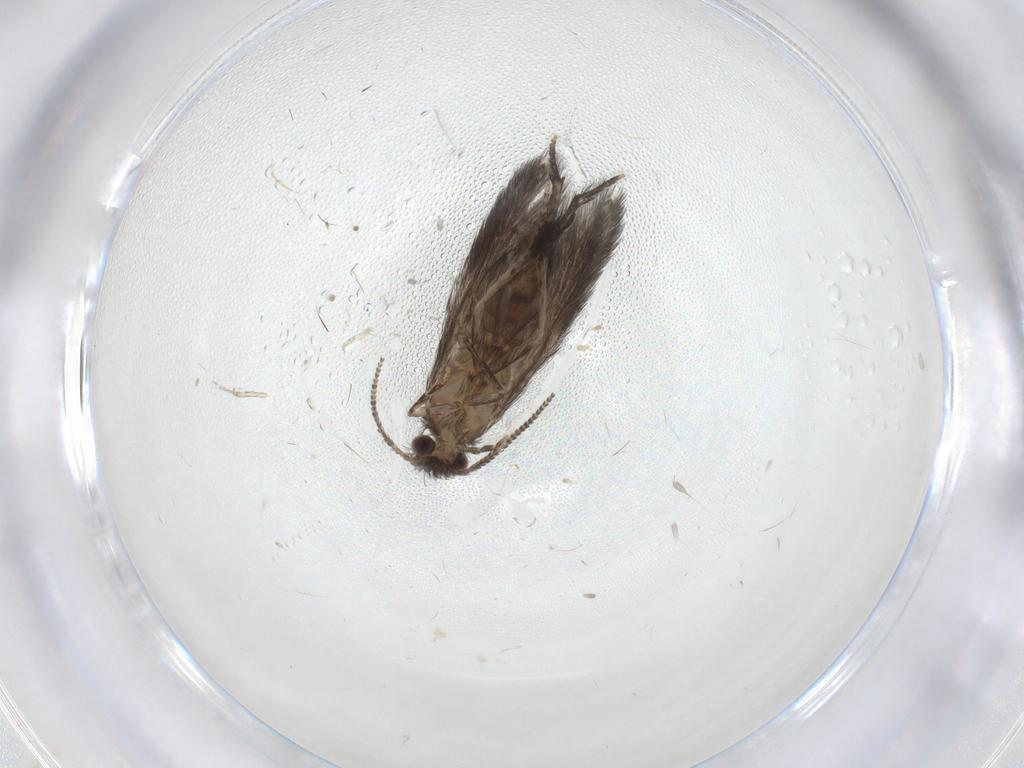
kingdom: Animalia
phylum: Arthropoda
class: Insecta
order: Trichoptera
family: Hydroptilidae
